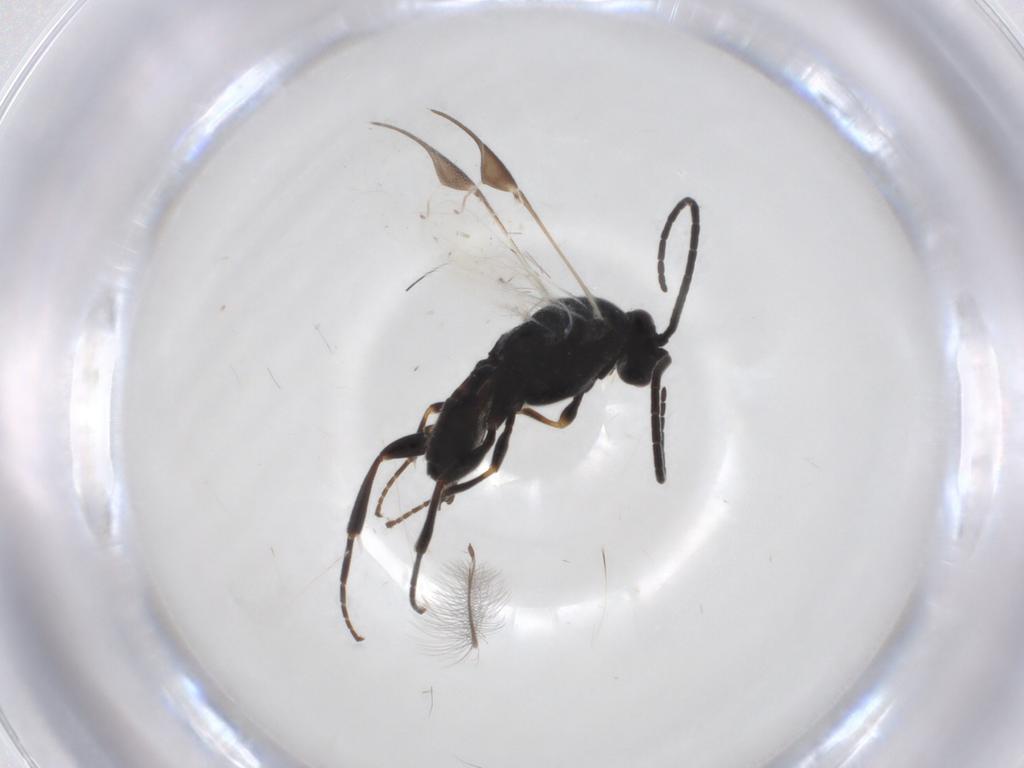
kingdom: Animalia
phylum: Arthropoda
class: Insecta
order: Hymenoptera
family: Braconidae
